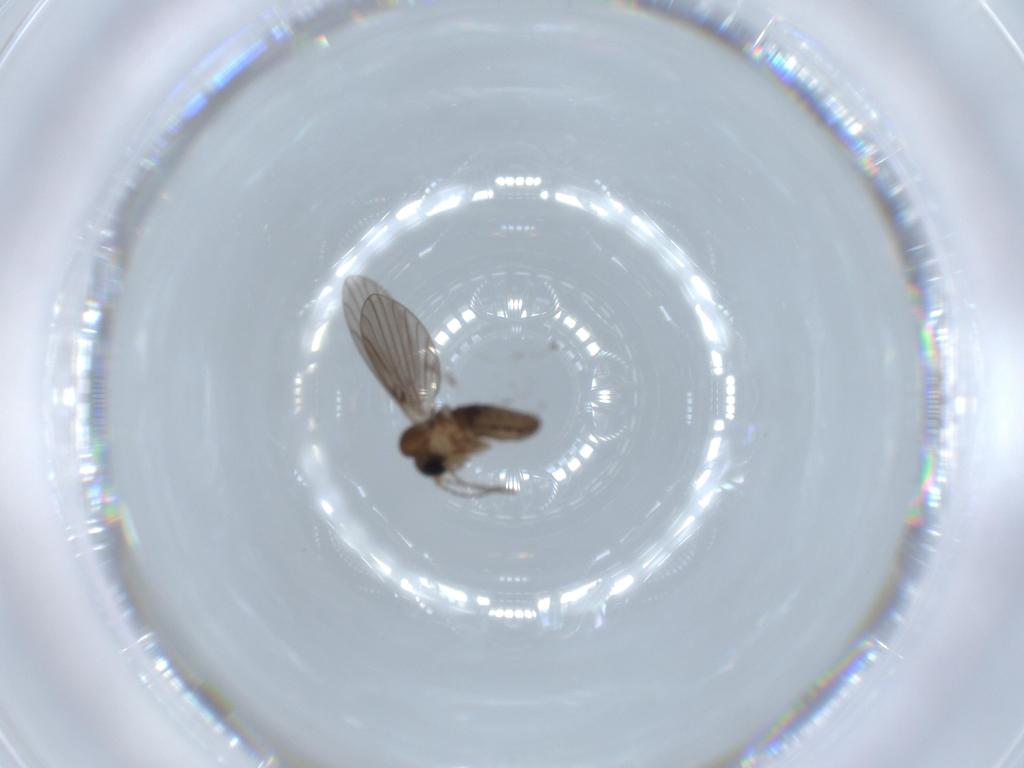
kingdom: Animalia
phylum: Arthropoda
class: Insecta
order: Diptera
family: Psychodidae
